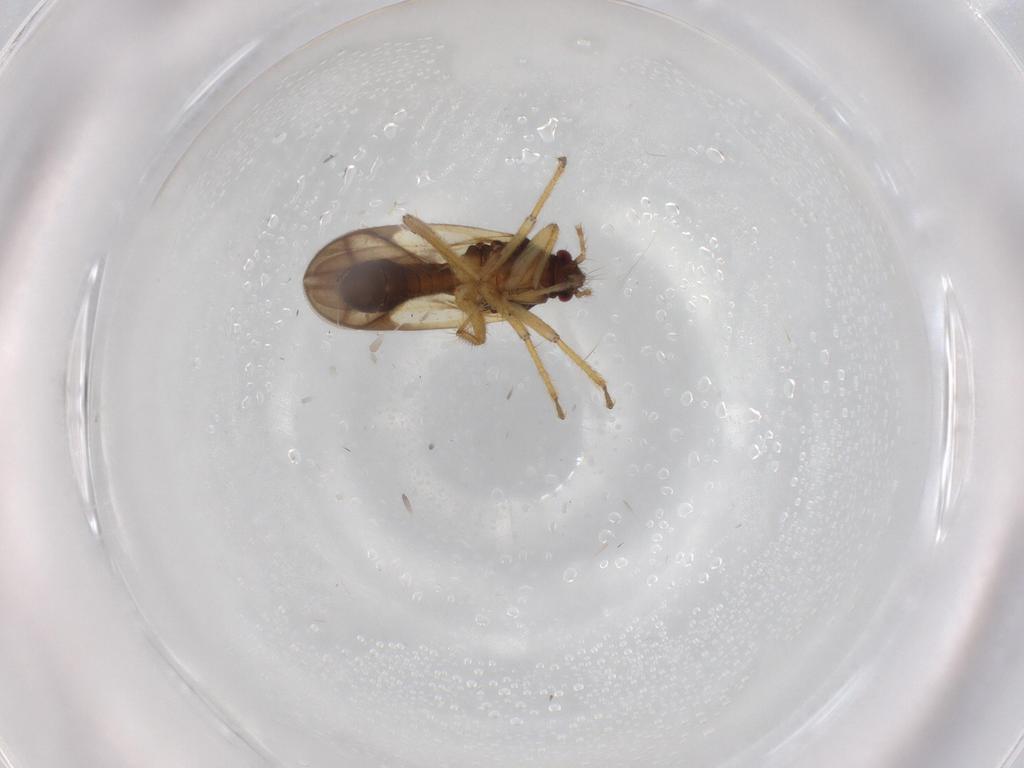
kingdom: Animalia
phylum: Arthropoda
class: Insecta
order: Hemiptera
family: Ceratocombidae
